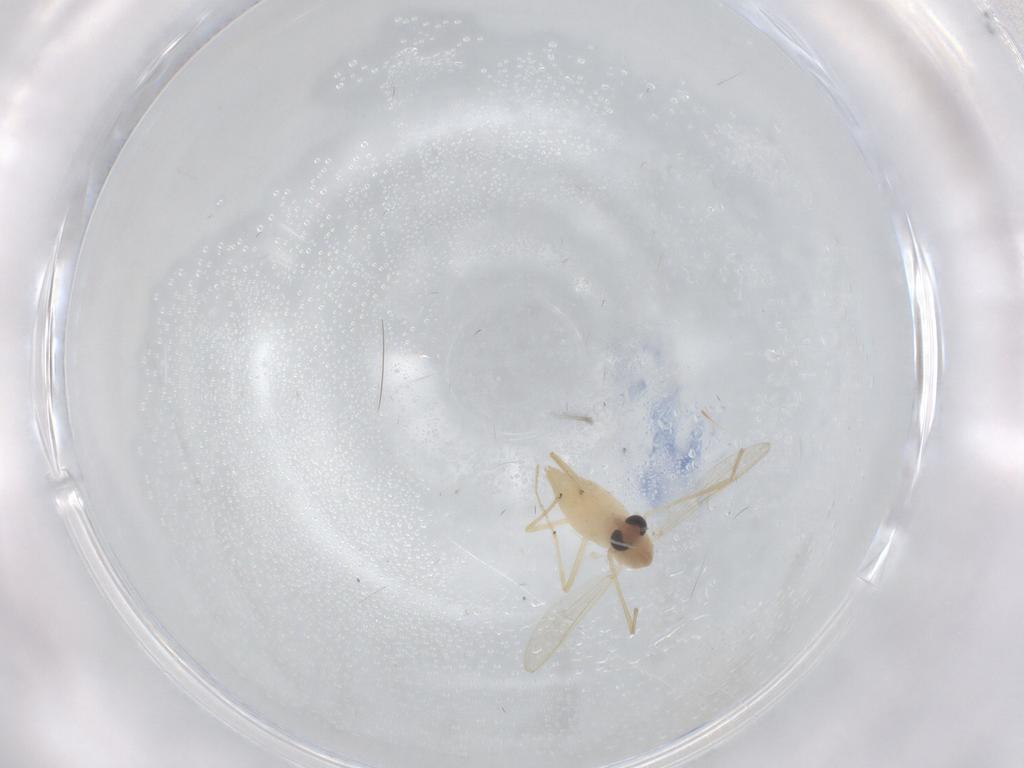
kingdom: Animalia
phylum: Arthropoda
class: Insecta
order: Diptera
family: Chironomidae
